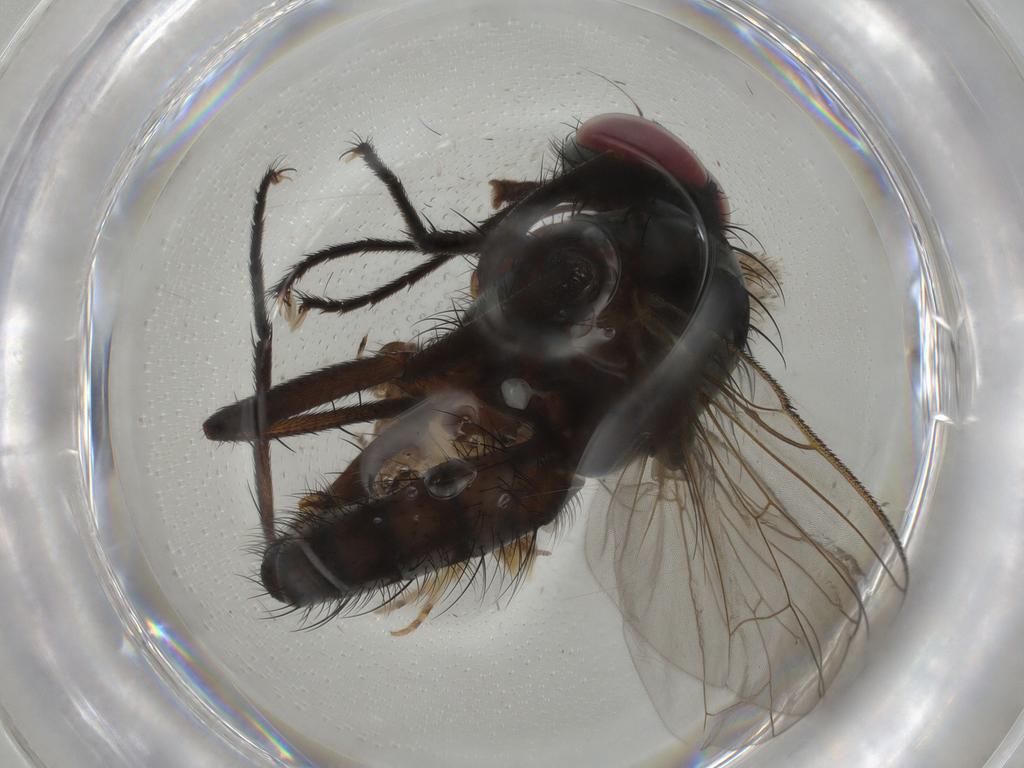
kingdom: Animalia
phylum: Arthropoda
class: Insecta
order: Diptera
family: Anthomyiidae
